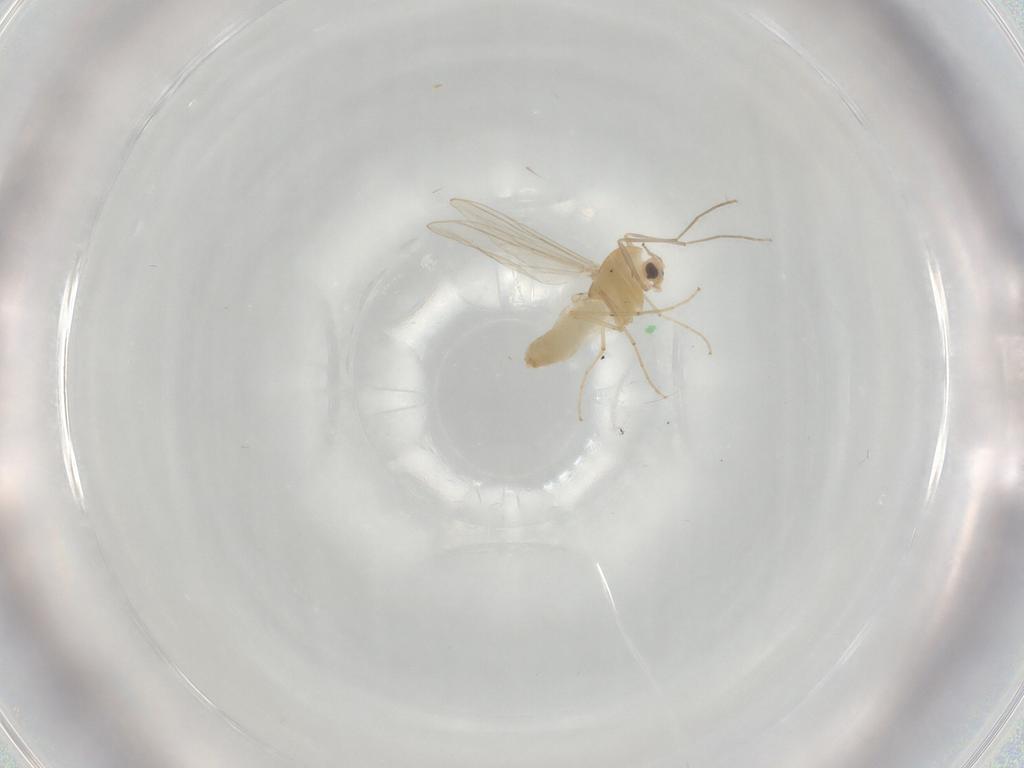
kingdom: Animalia
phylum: Arthropoda
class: Insecta
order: Diptera
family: Chironomidae
